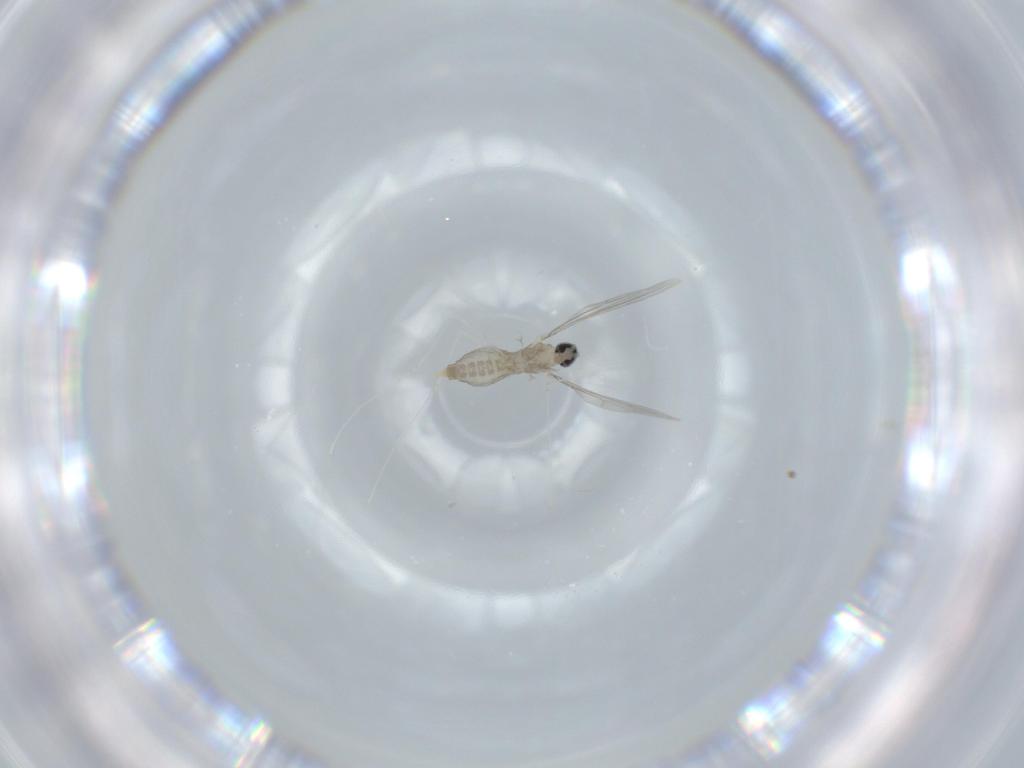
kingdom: Animalia
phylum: Arthropoda
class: Insecta
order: Diptera
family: Cecidomyiidae
